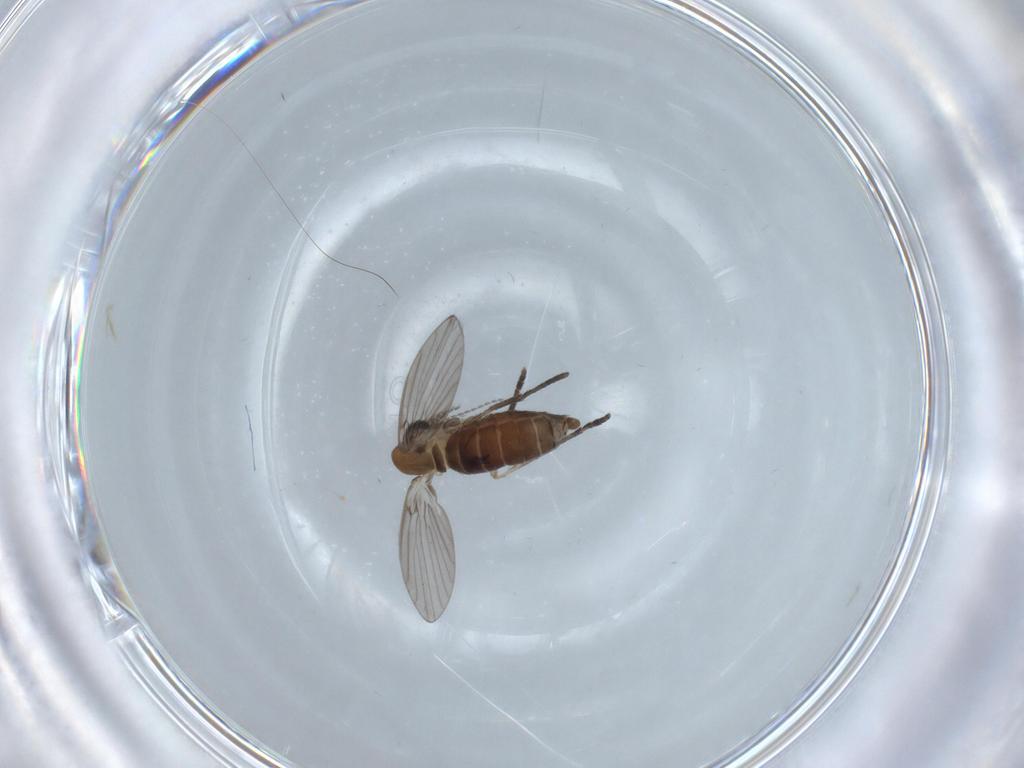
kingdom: Animalia
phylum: Arthropoda
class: Insecta
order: Diptera
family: Psychodidae
